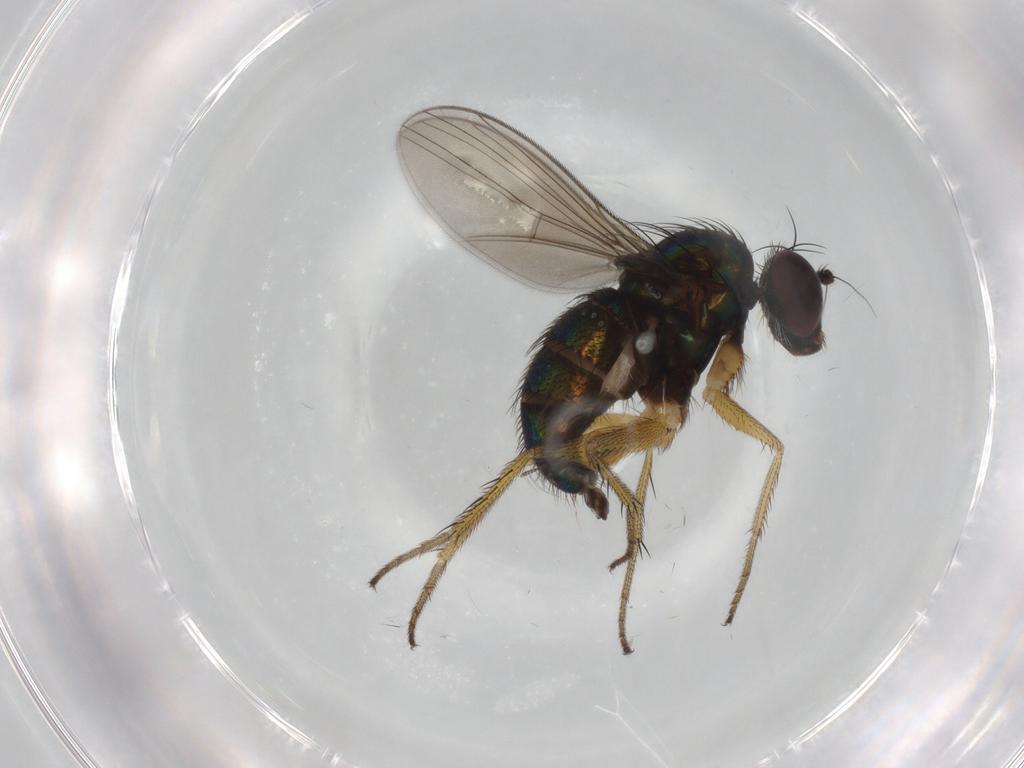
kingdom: Animalia
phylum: Arthropoda
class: Insecta
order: Diptera
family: Dolichopodidae
